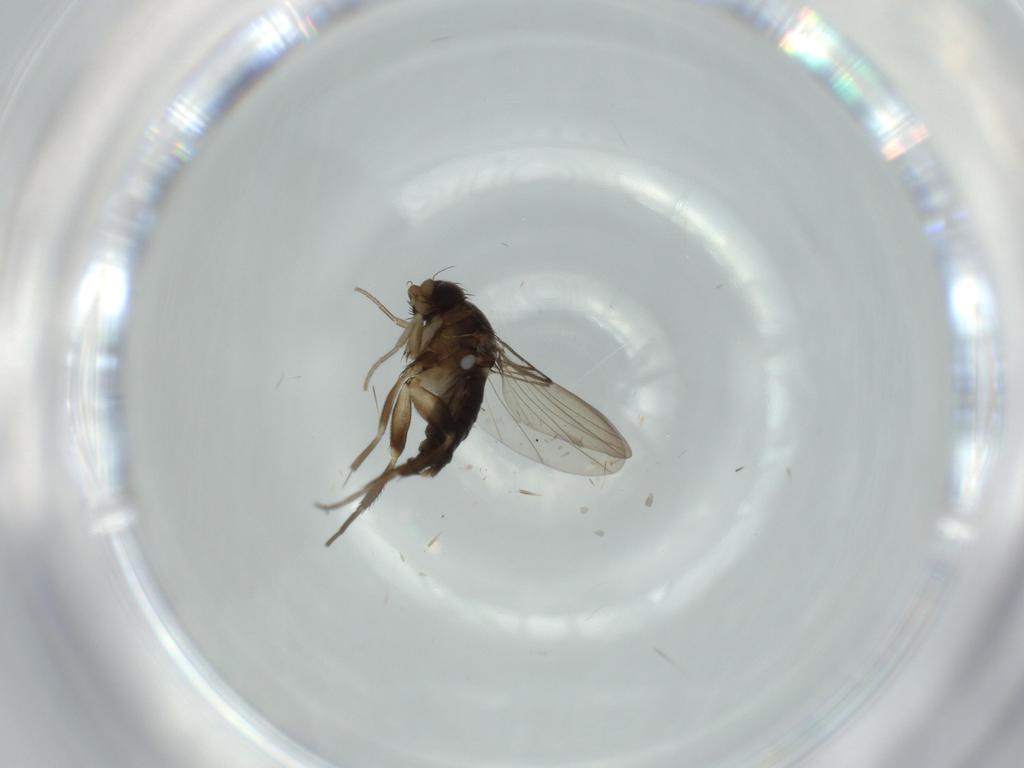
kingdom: Animalia
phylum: Arthropoda
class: Insecta
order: Diptera
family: Phoridae
